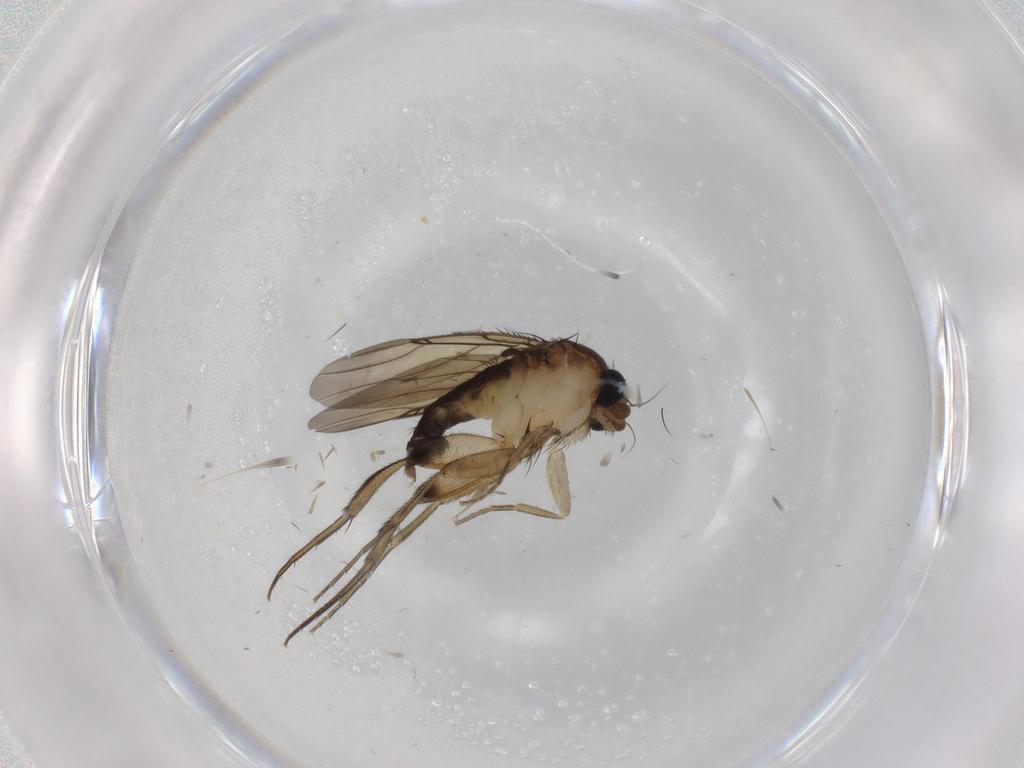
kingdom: Animalia
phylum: Arthropoda
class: Insecta
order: Diptera
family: Phoridae
